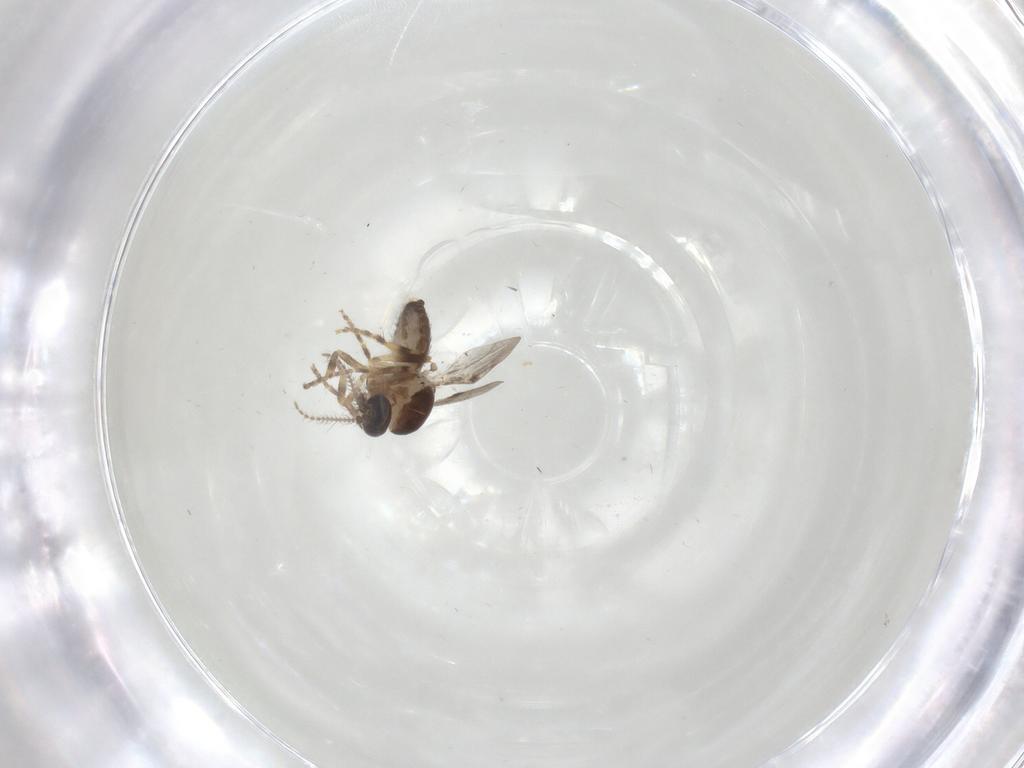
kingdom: Animalia
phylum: Arthropoda
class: Insecta
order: Diptera
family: Ceratopogonidae
